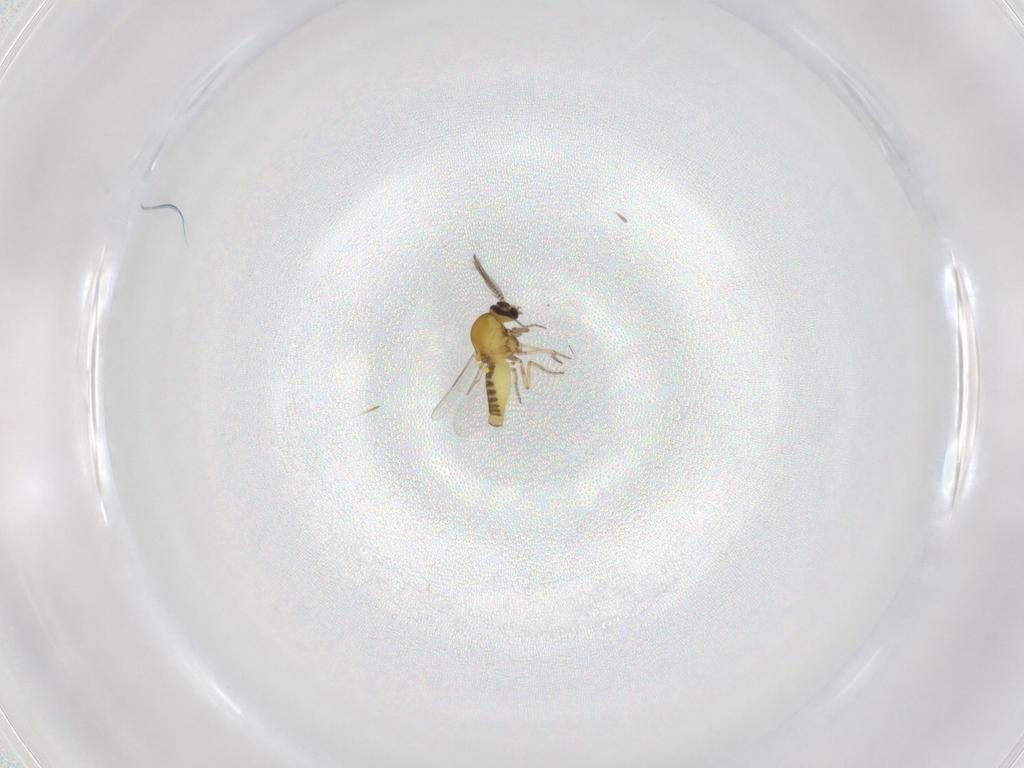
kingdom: Animalia
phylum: Arthropoda
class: Insecta
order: Diptera
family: Ceratopogonidae
